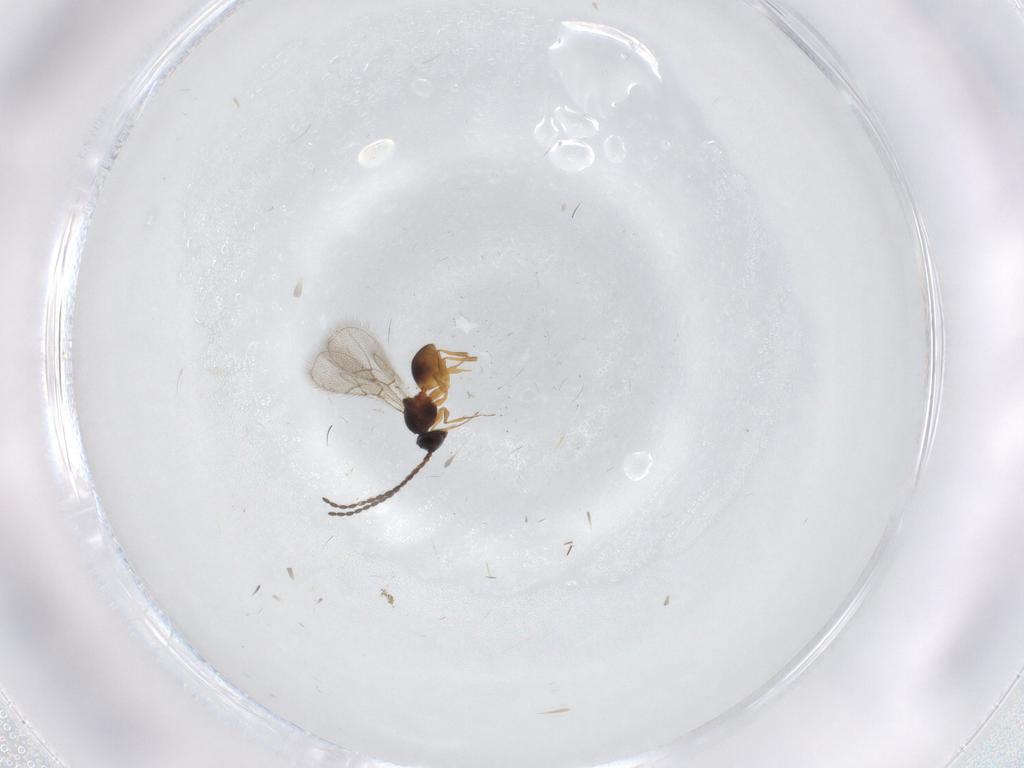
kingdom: Animalia
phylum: Arthropoda
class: Insecta
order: Hymenoptera
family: Figitidae
